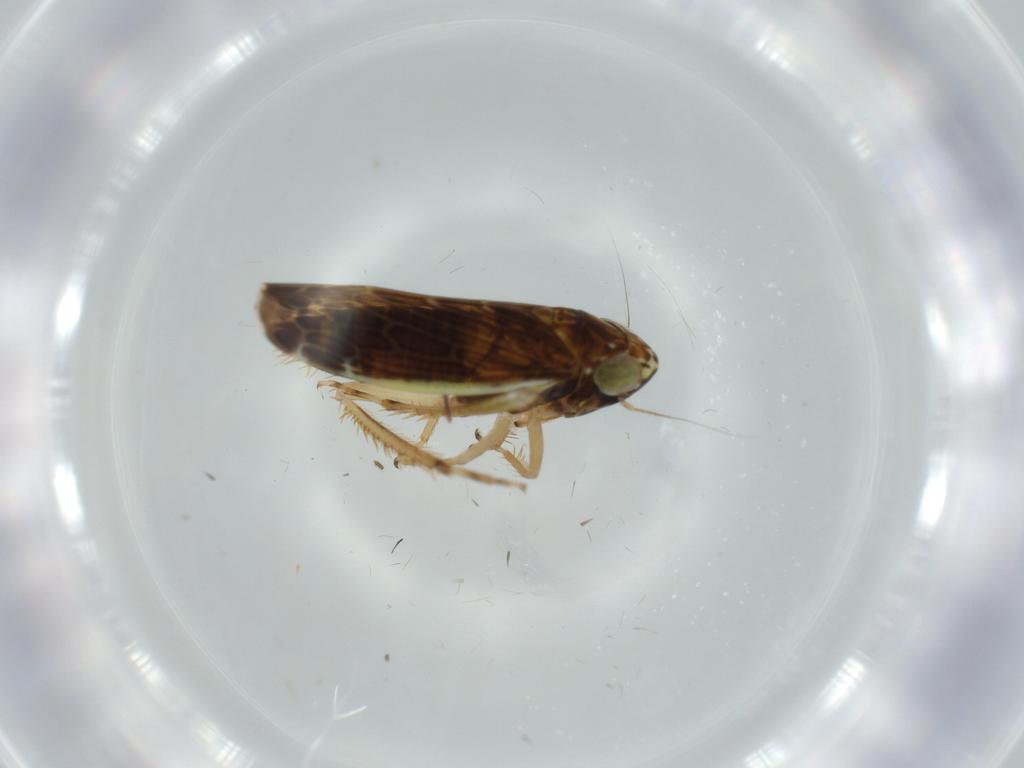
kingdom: Animalia
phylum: Arthropoda
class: Insecta
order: Hemiptera
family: Cicadellidae
